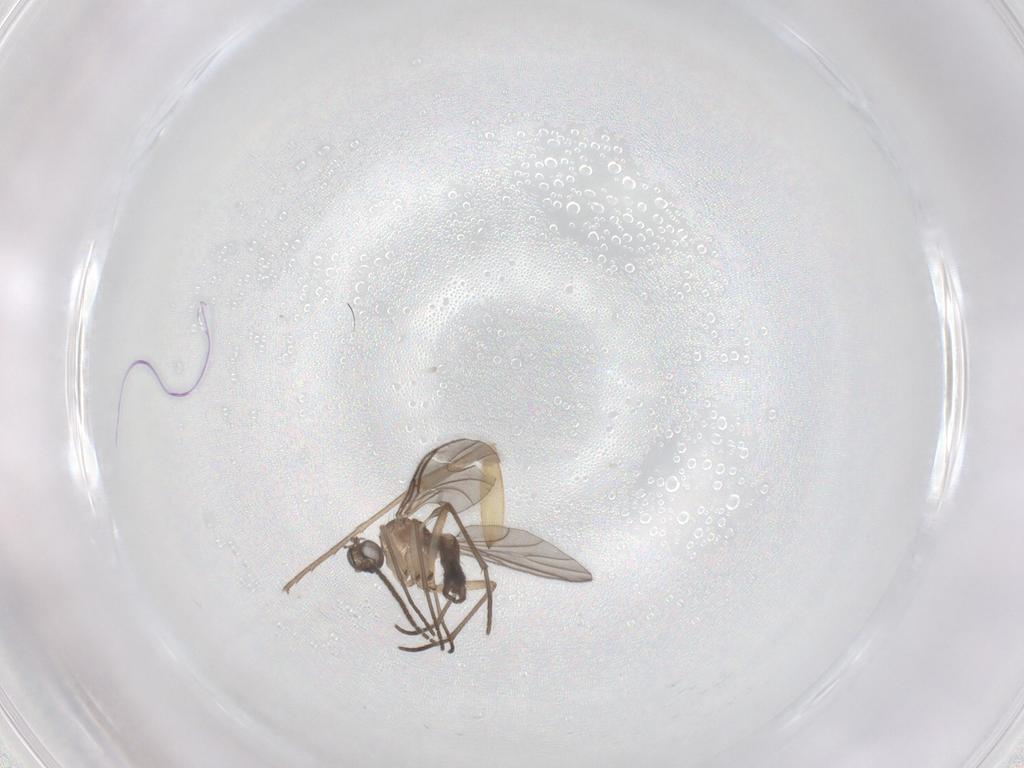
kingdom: Animalia
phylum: Arthropoda
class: Insecta
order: Diptera
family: Mycetophilidae
